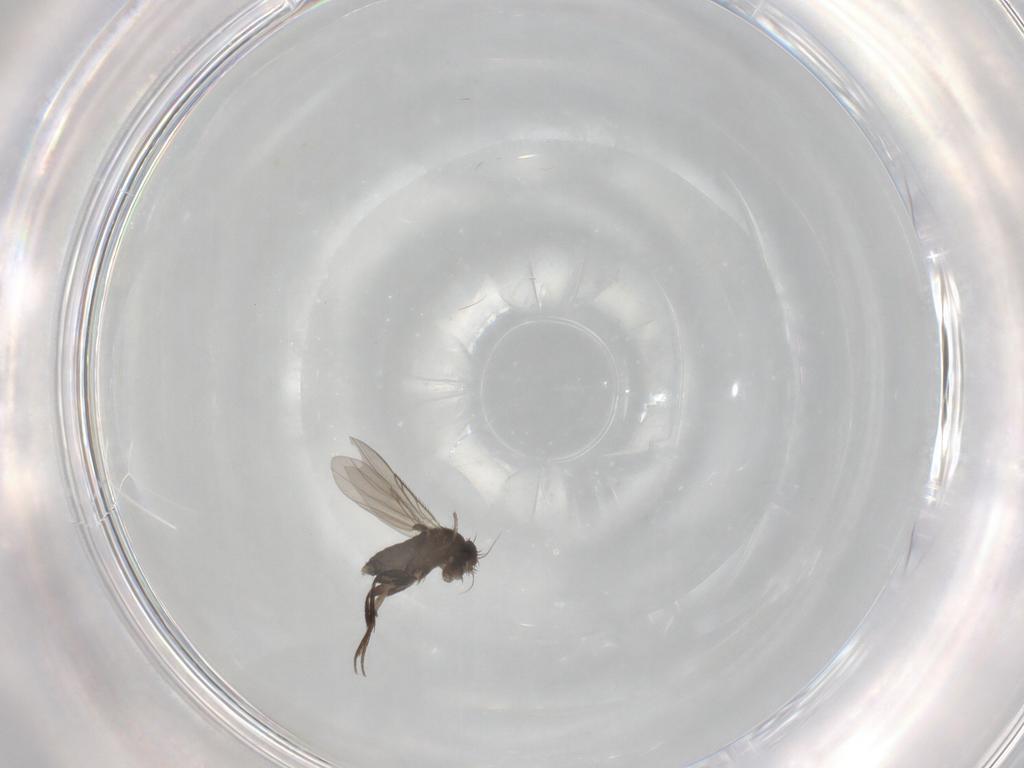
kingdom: Animalia
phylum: Arthropoda
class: Insecta
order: Diptera
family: Phoridae
